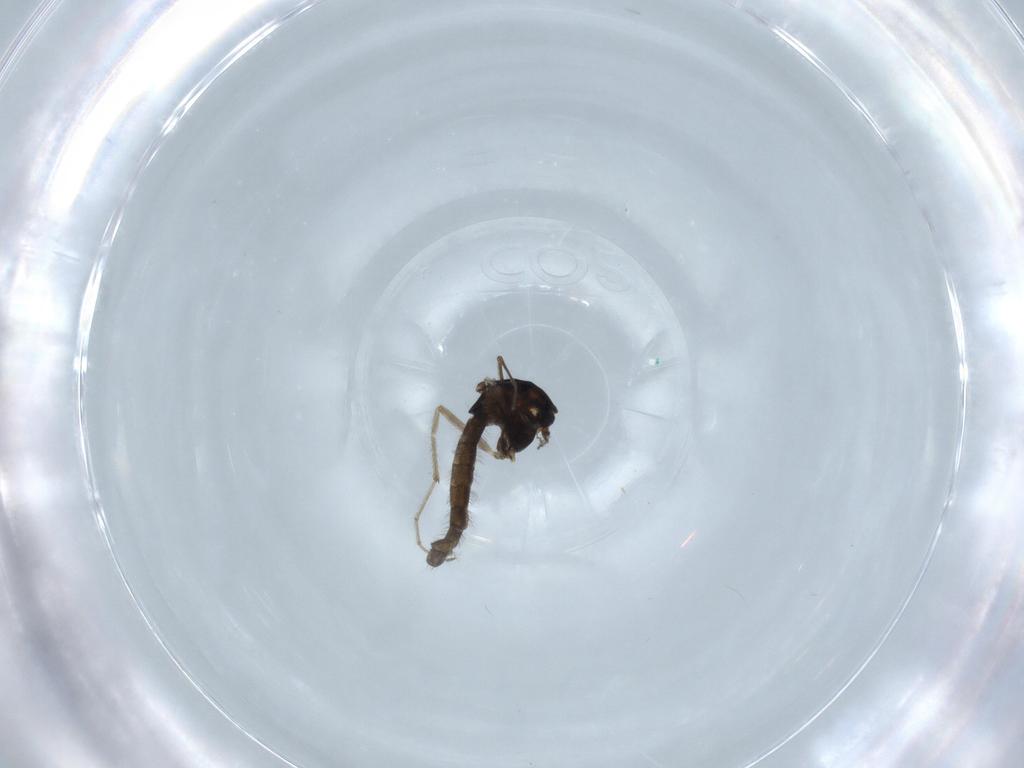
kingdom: Animalia
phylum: Arthropoda
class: Insecta
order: Diptera
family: Chironomidae
